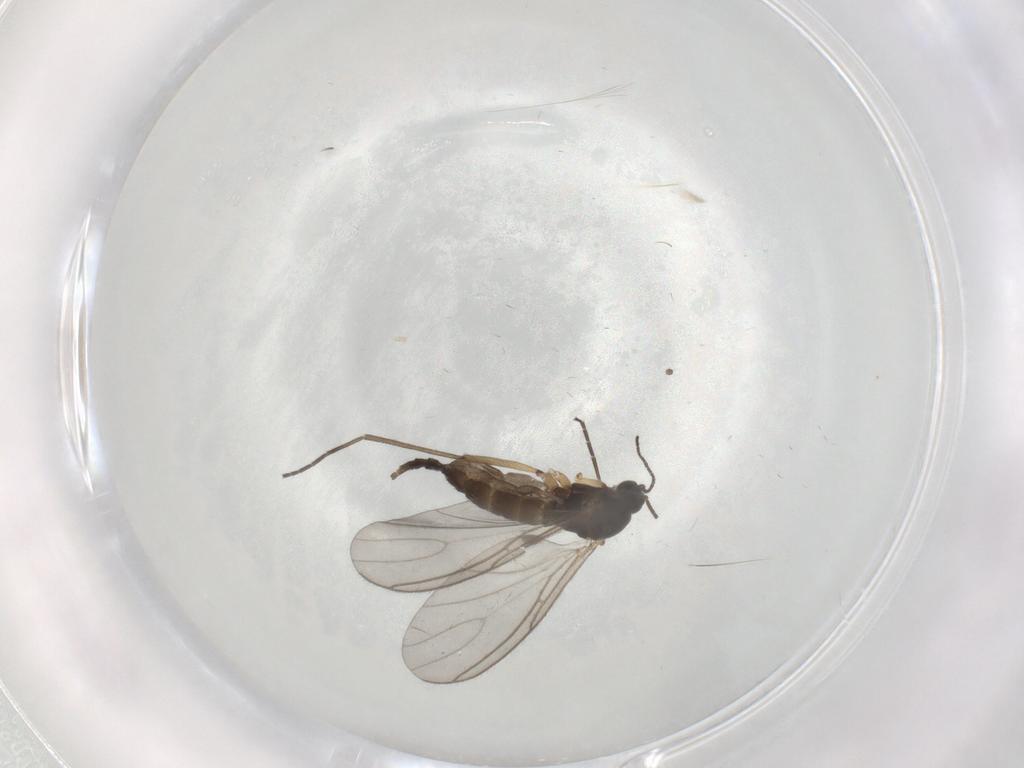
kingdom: Animalia
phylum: Arthropoda
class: Insecta
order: Diptera
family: Sciaridae
